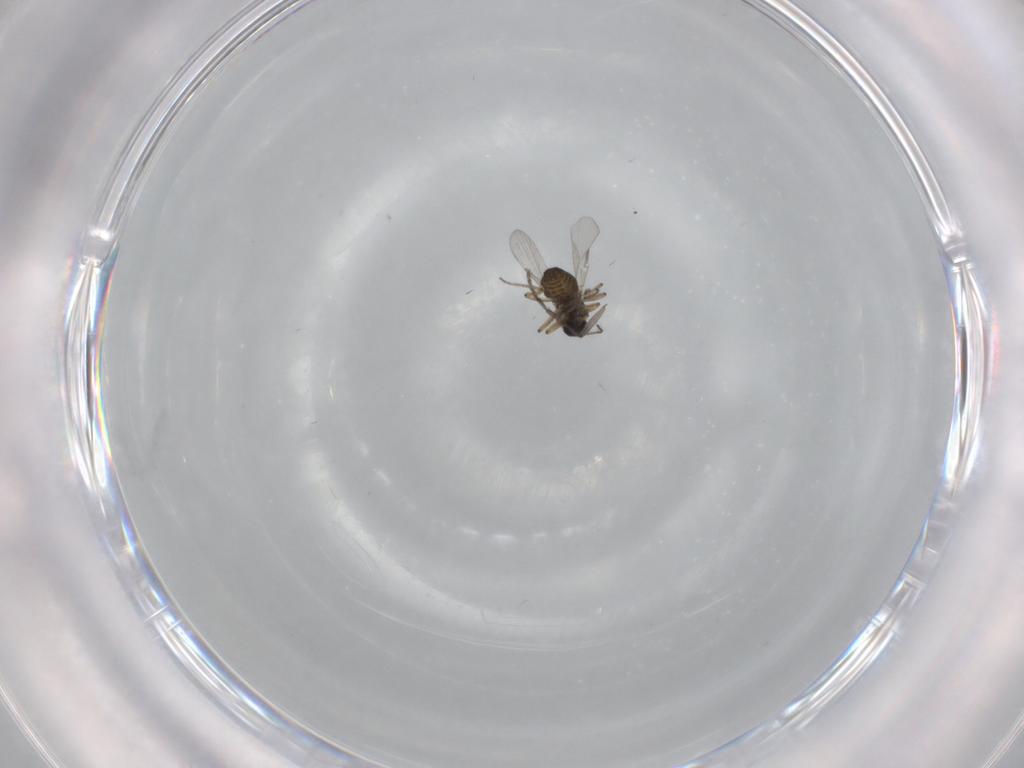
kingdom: Animalia
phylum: Arthropoda
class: Insecta
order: Diptera
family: Ceratopogonidae
